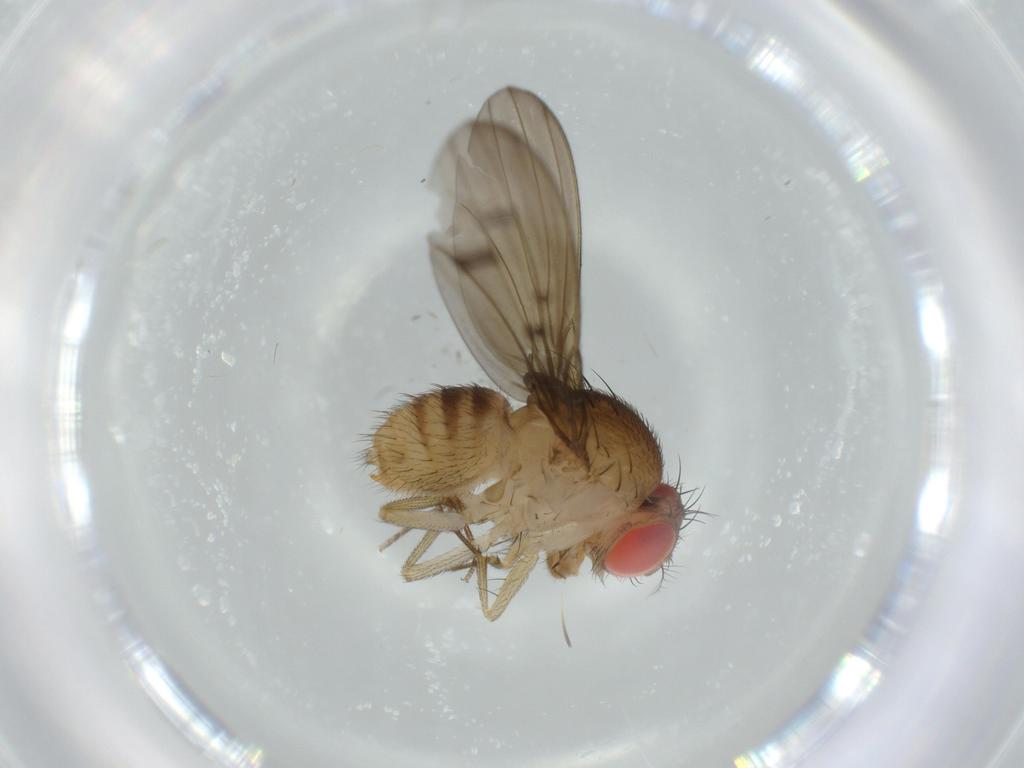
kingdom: Animalia
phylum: Arthropoda
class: Insecta
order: Diptera
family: Drosophilidae
